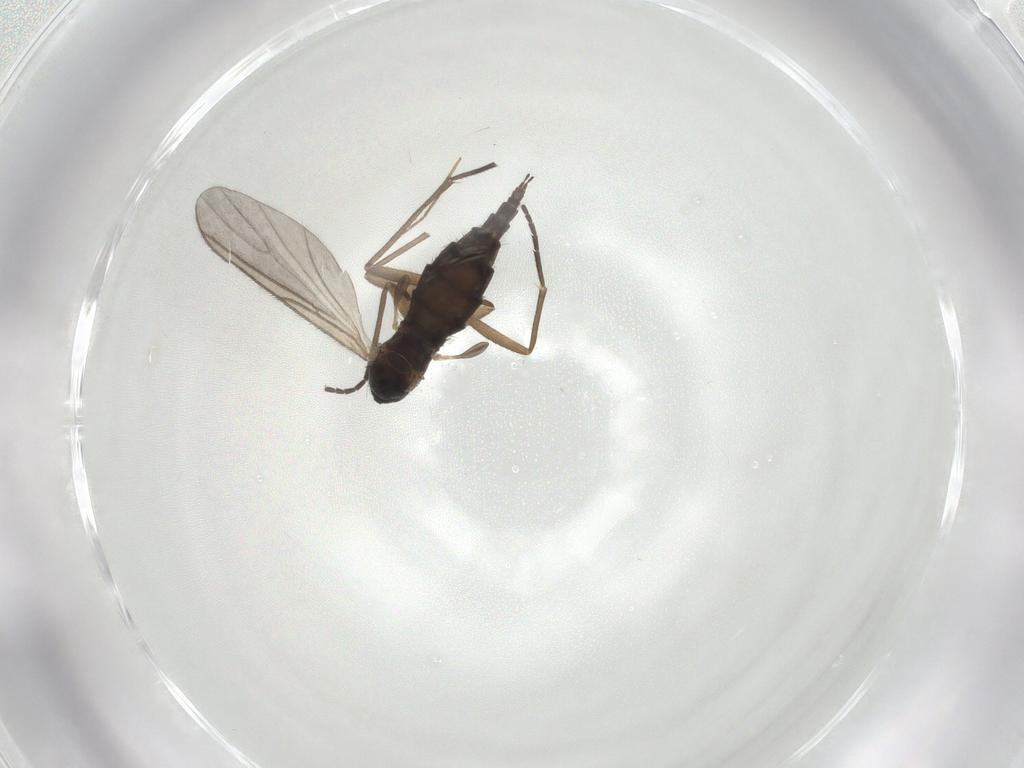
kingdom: Animalia
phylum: Arthropoda
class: Insecta
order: Diptera
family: Sciaridae
